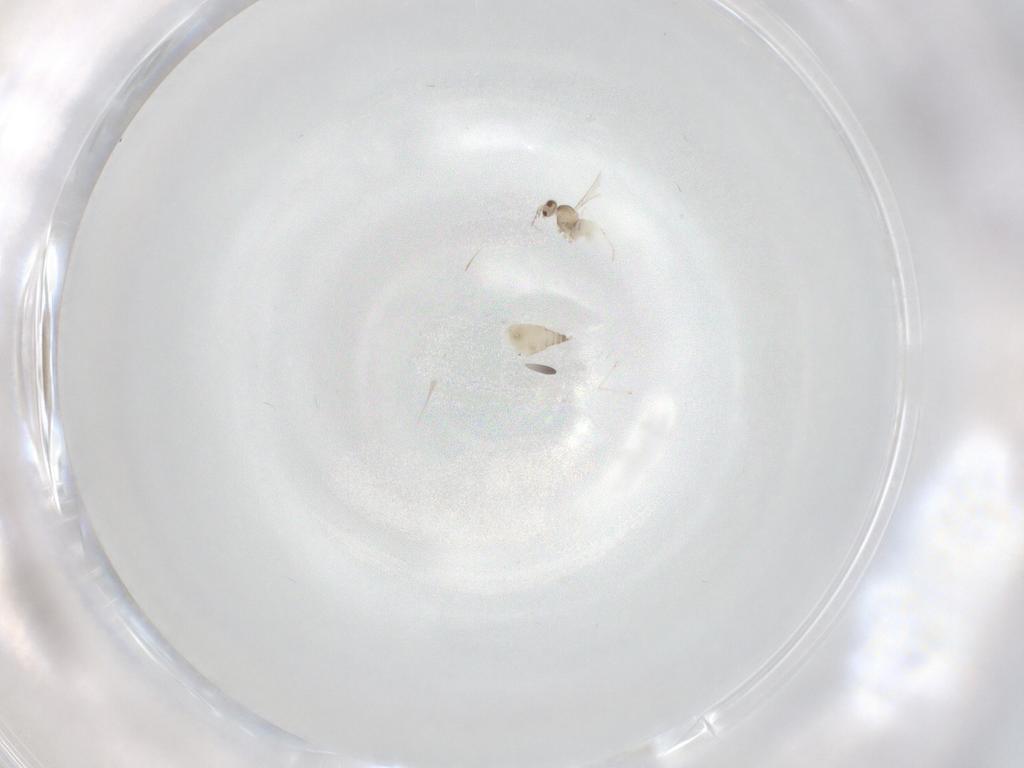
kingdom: Animalia
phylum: Arthropoda
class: Insecta
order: Diptera
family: Cecidomyiidae
